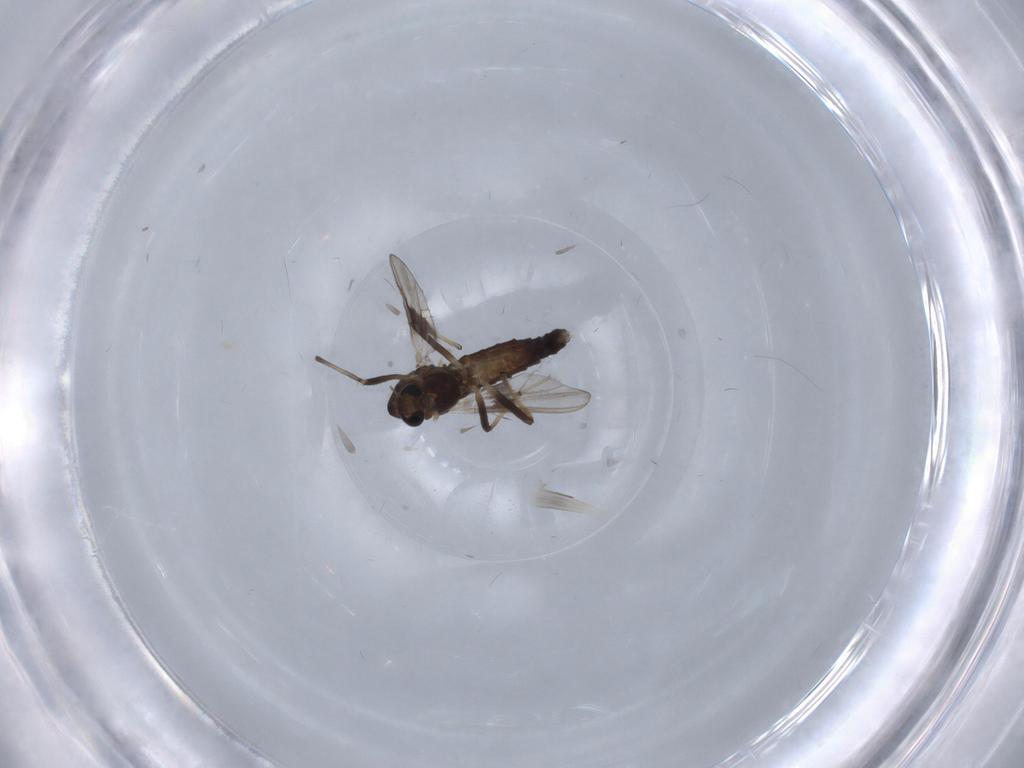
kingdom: Animalia
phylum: Arthropoda
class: Insecta
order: Diptera
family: Chironomidae
